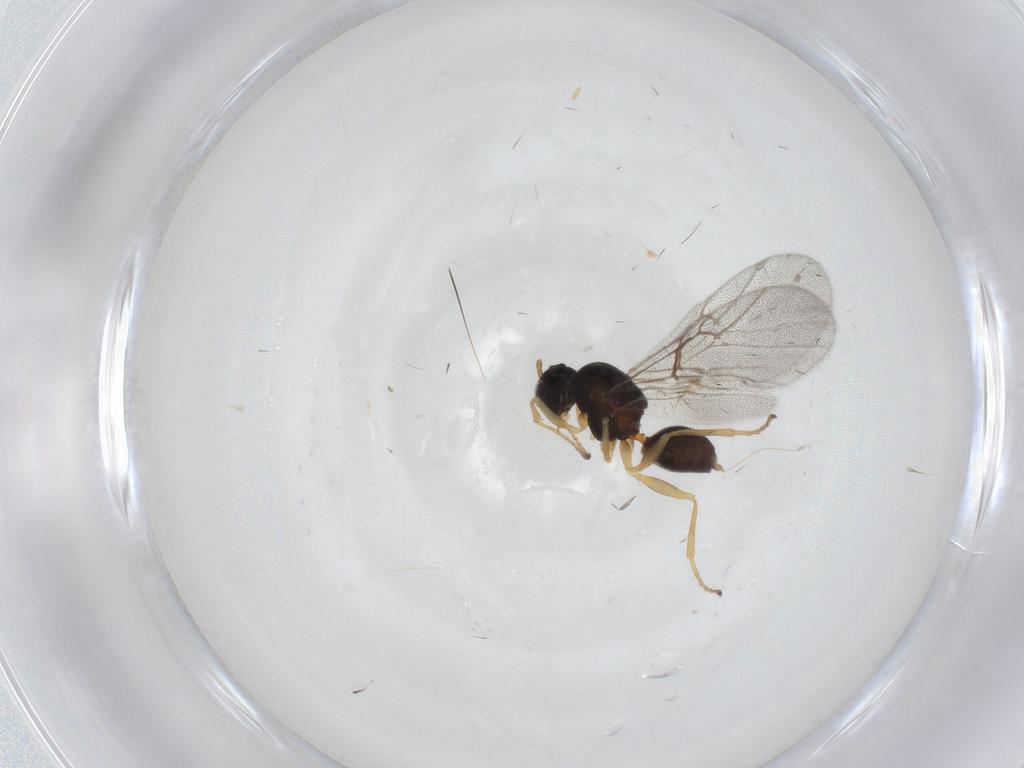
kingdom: Animalia
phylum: Arthropoda
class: Insecta
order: Hymenoptera
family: Cynipidae
